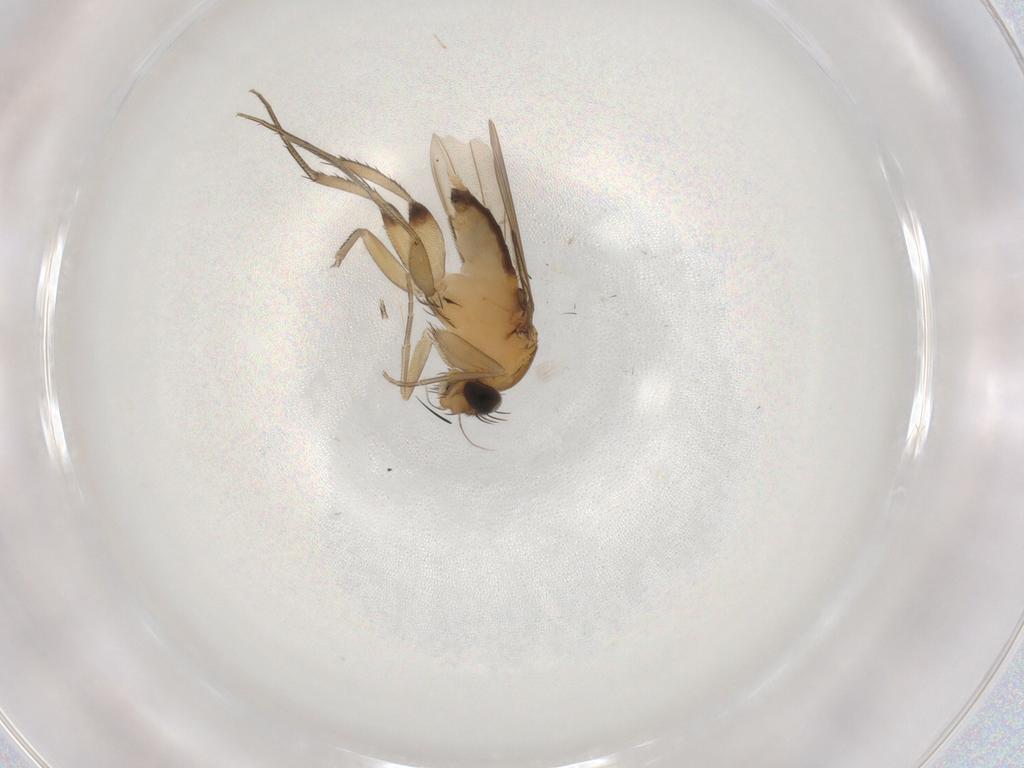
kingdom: Animalia
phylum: Arthropoda
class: Insecta
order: Diptera
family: Phoridae
